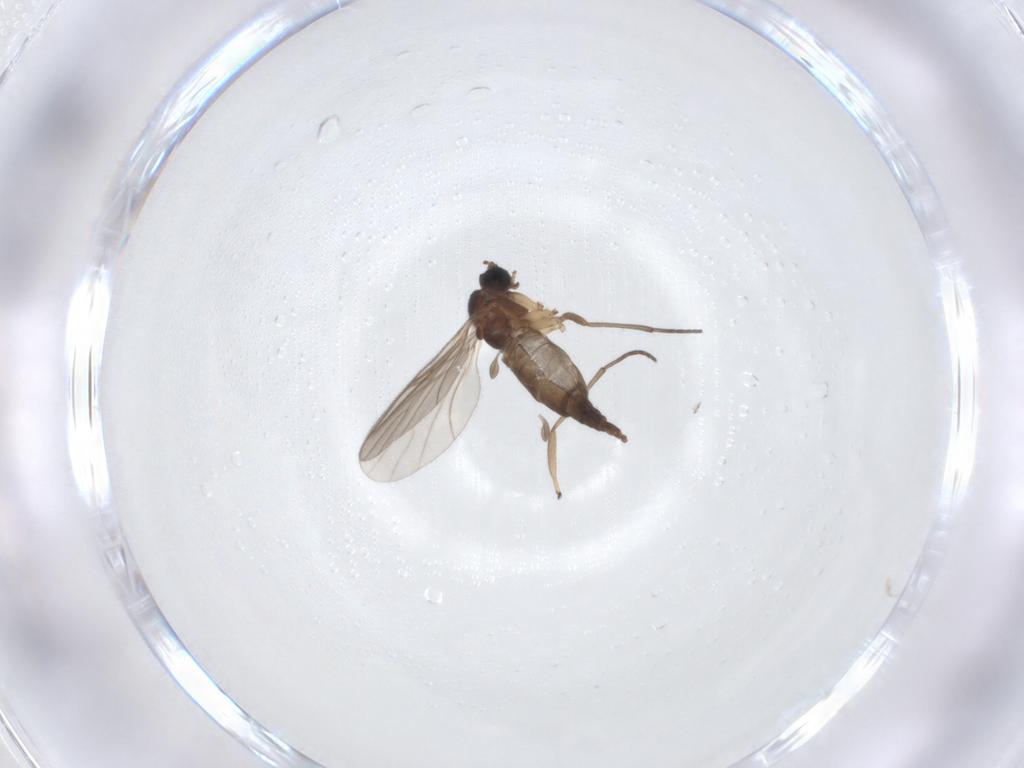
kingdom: Animalia
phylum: Arthropoda
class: Insecta
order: Diptera
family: Sciaridae
